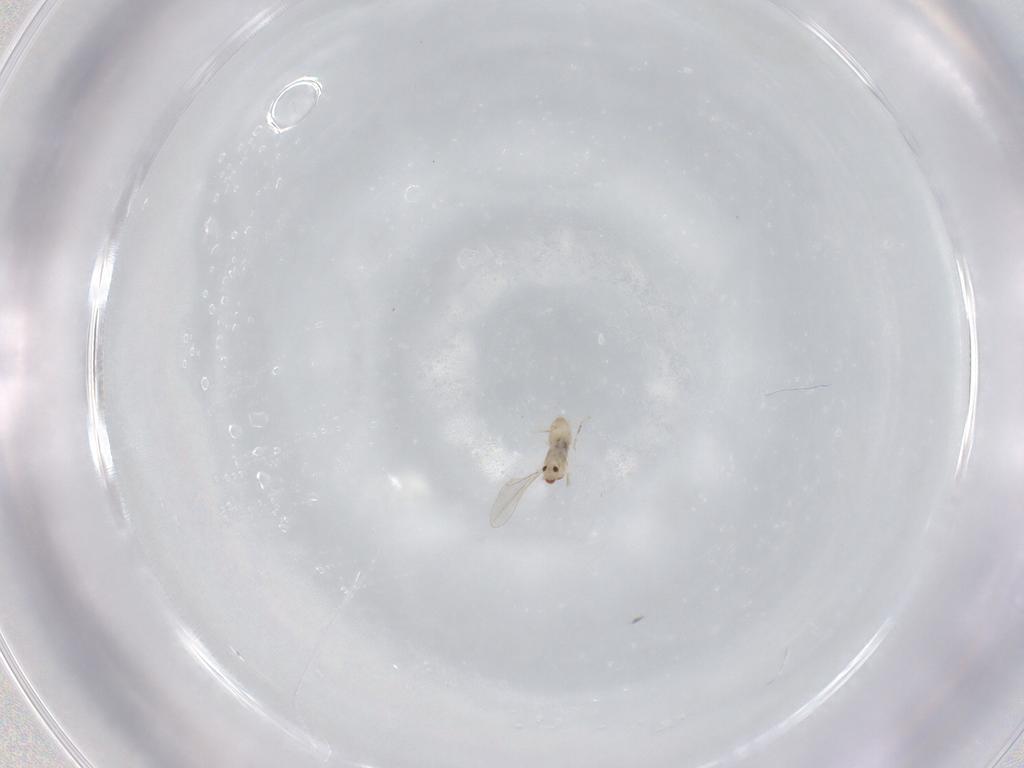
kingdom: Animalia
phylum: Arthropoda
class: Insecta
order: Diptera
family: Cecidomyiidae
